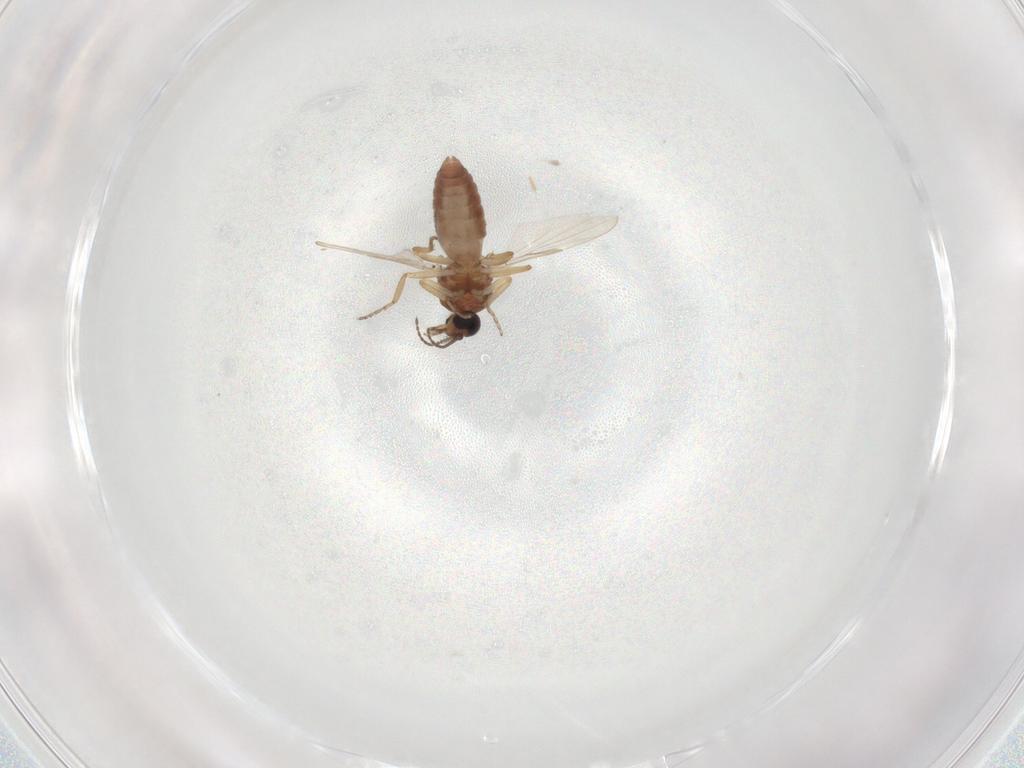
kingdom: Animalia
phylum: Arthropoda
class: Insecta
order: Diptera
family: Ceratopogonidae
